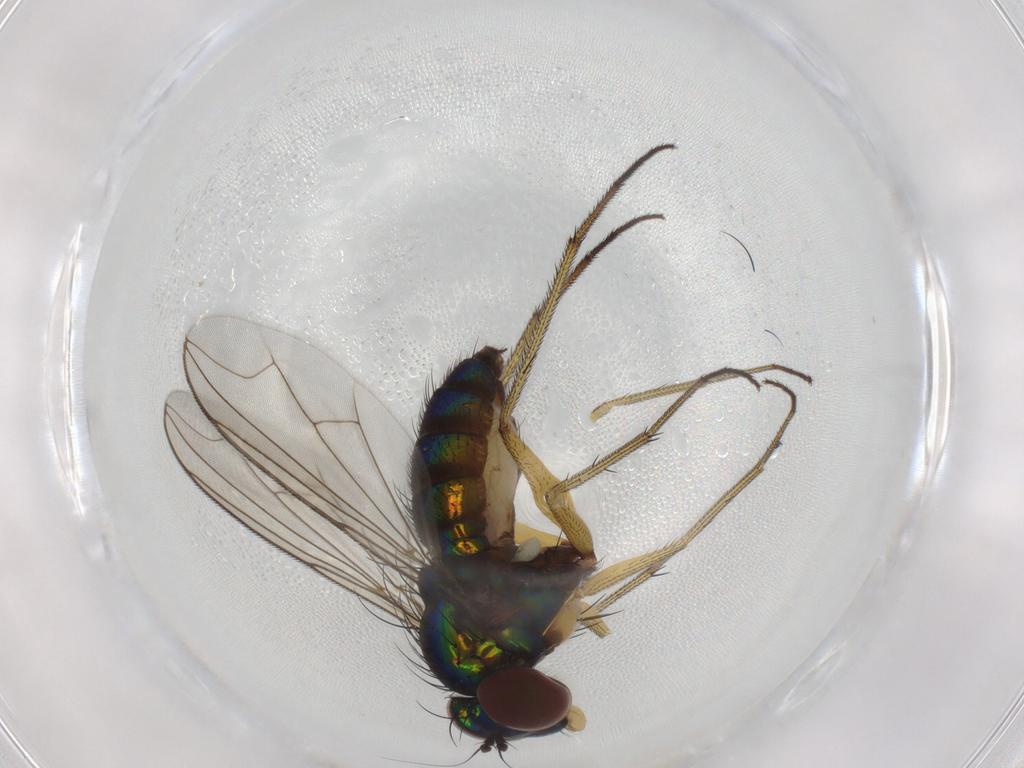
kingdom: Animalia
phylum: Arthropoda
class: Insecta
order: Diptera
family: Dolichopodidae
